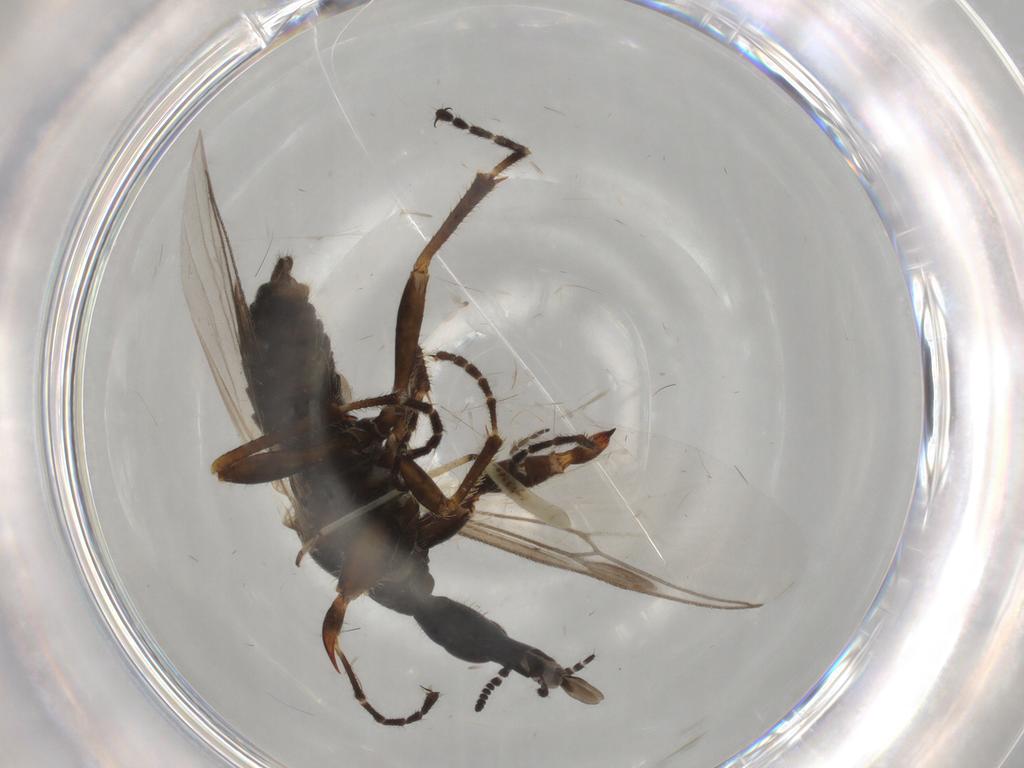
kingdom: Animalia
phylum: Arthropoda
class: Insecta
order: Diptera
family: Bibionidae
